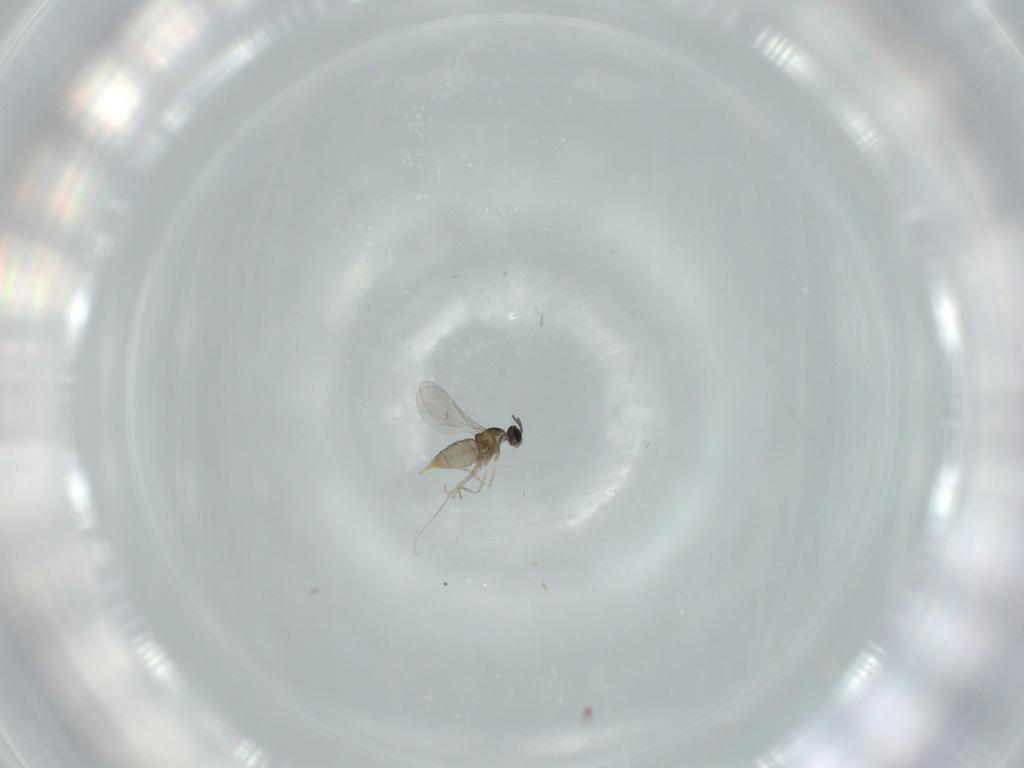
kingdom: Animalia
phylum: Arthropoda
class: Insecta
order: Diptera
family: Cecidomyiidae
